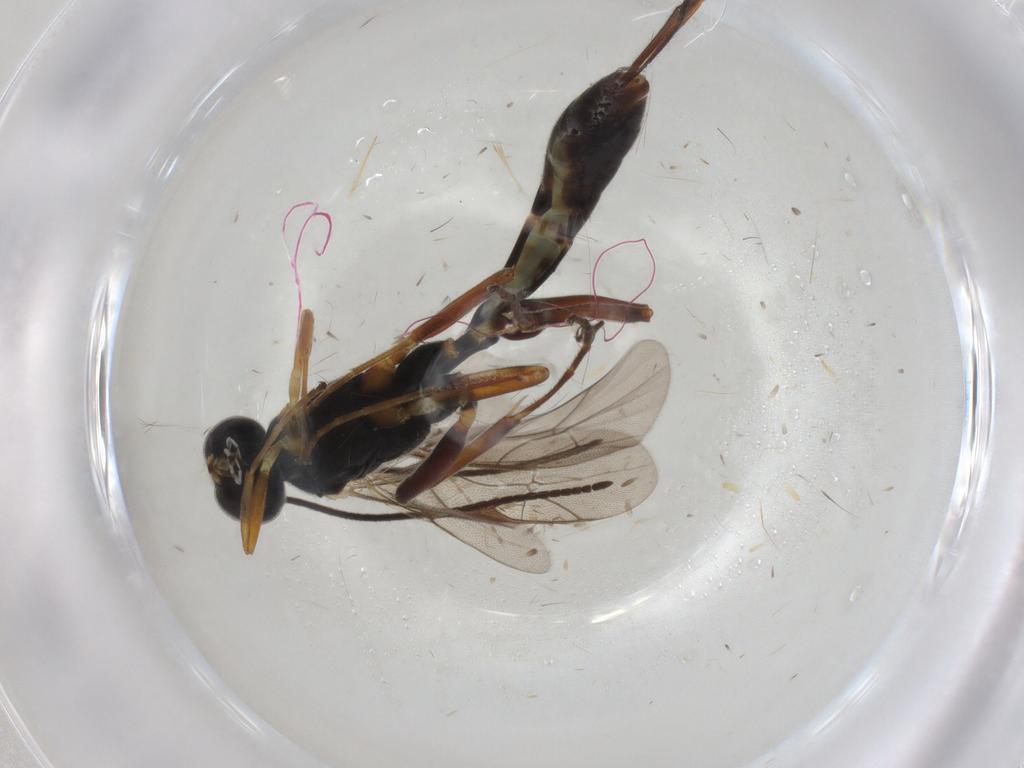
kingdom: Animalia
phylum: Arthropoda
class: Insecta
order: Hymenoptera
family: Ichneumonidae
